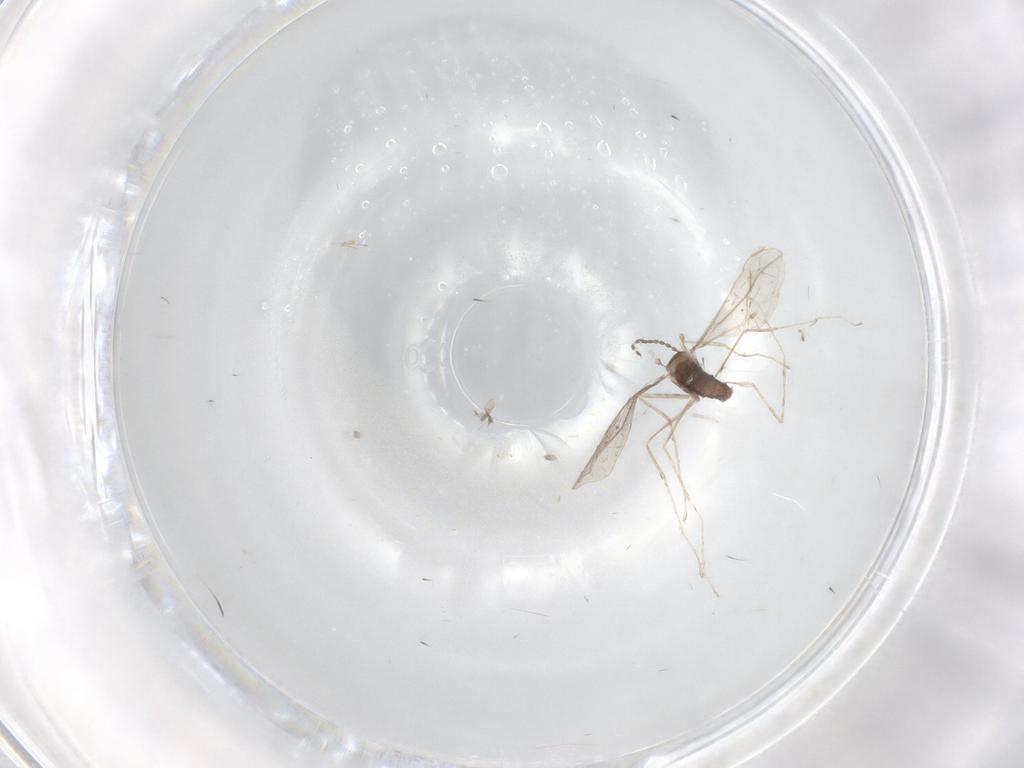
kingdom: Animalia
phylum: Arthropoda
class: Insecta
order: Diptera
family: Cecidomyiidae
